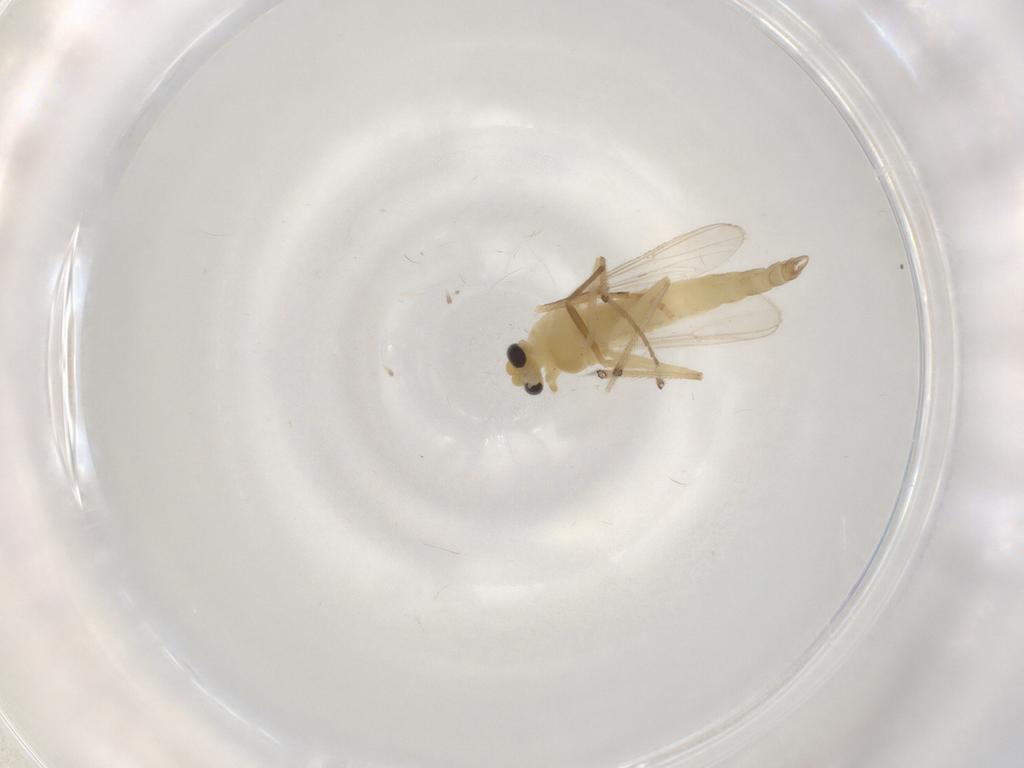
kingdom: Animalia
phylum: Arthropoda
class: Insecta
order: Diptera
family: Chironomidae
